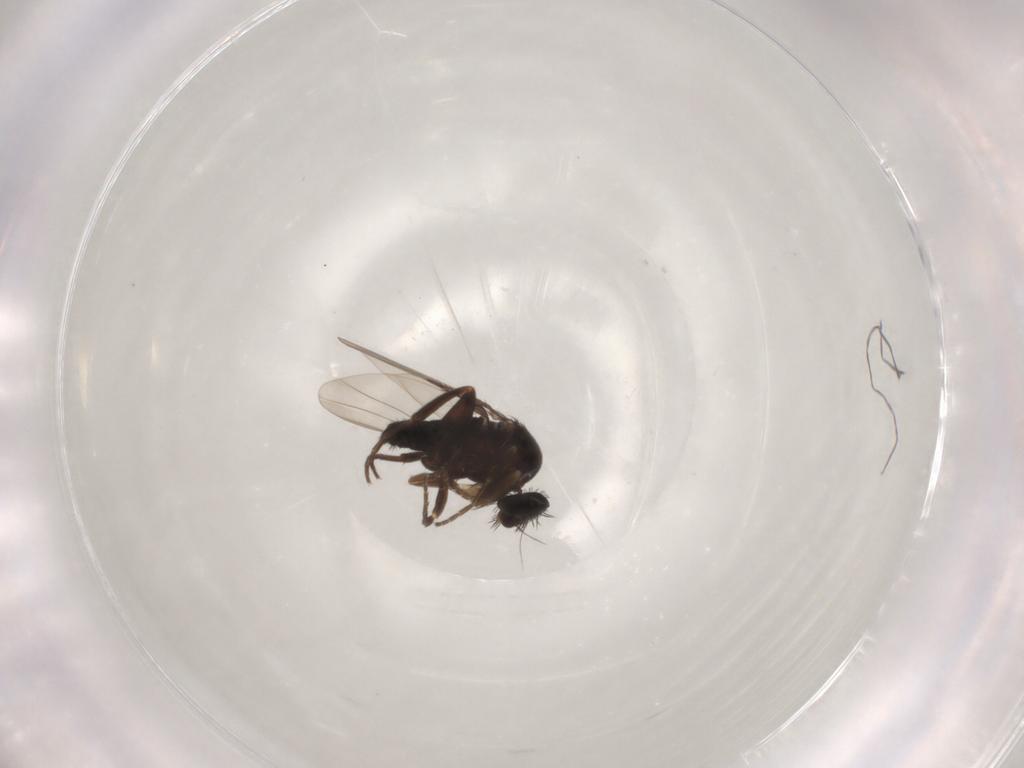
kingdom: Animalia
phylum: Arthropoda
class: Insecta
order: Diptera
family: Phoridae
